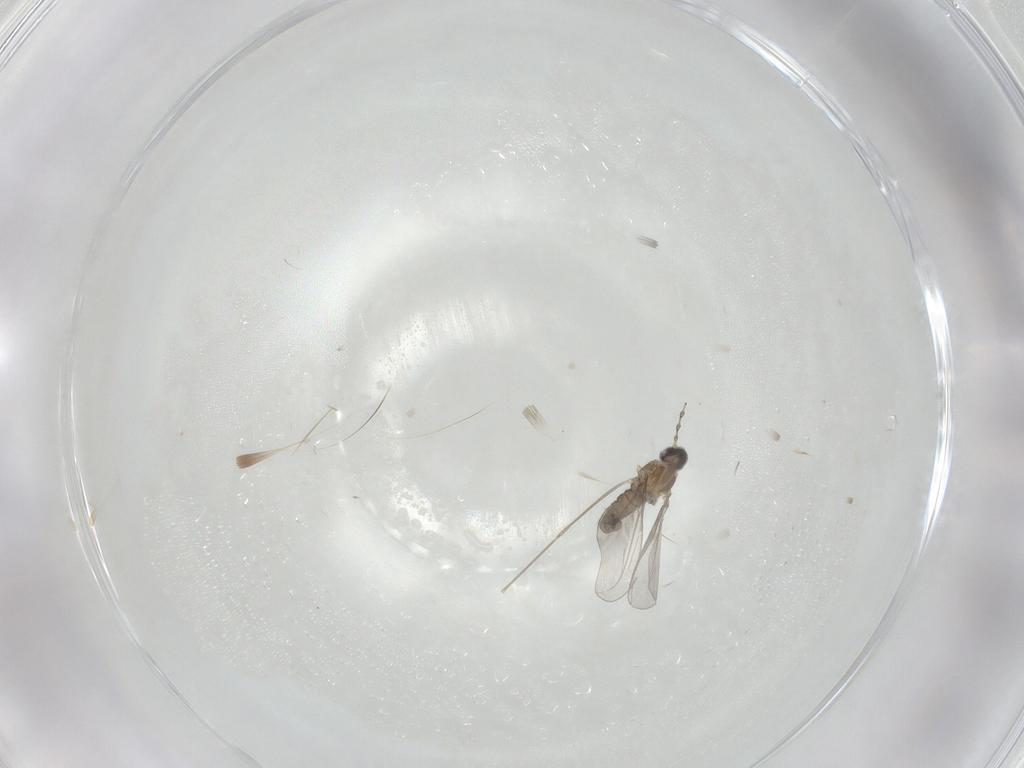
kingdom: Animalia
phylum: Arthropoda
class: Insecta
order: Diptera
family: Cecidomyiidae
